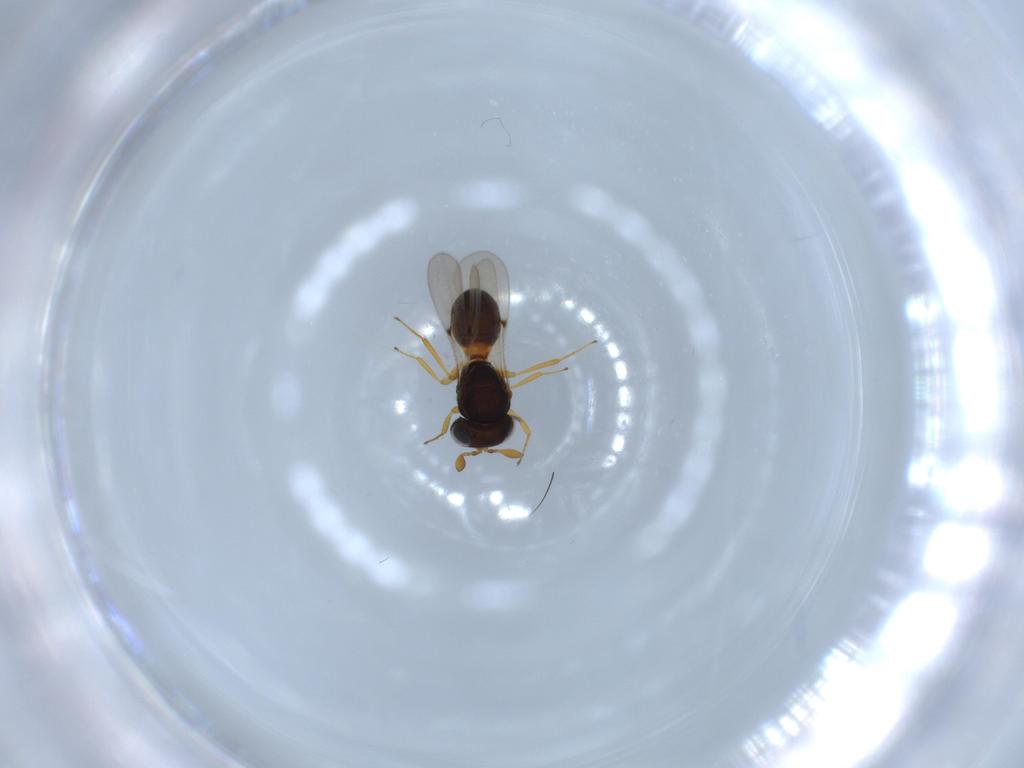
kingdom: Animalia
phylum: Arthropoda
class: Insecta
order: Hymenoptera
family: Scelionidae
